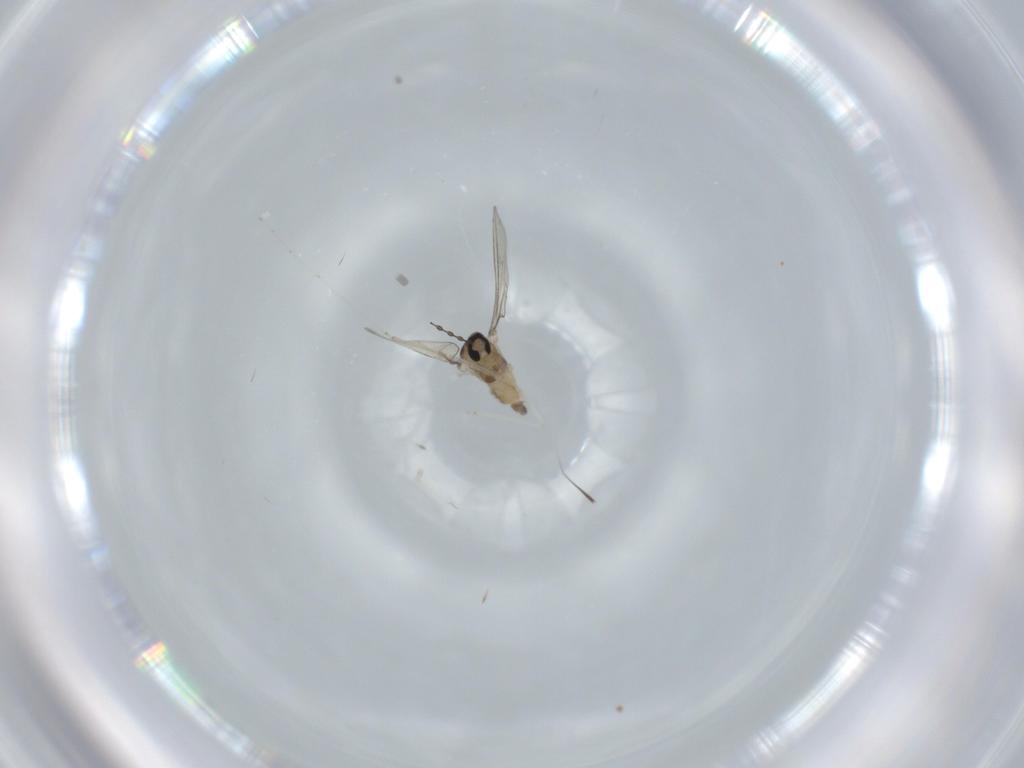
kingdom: Animalia
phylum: Arthropoda
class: Insecta
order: Diptera
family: Cecidomyiidae
